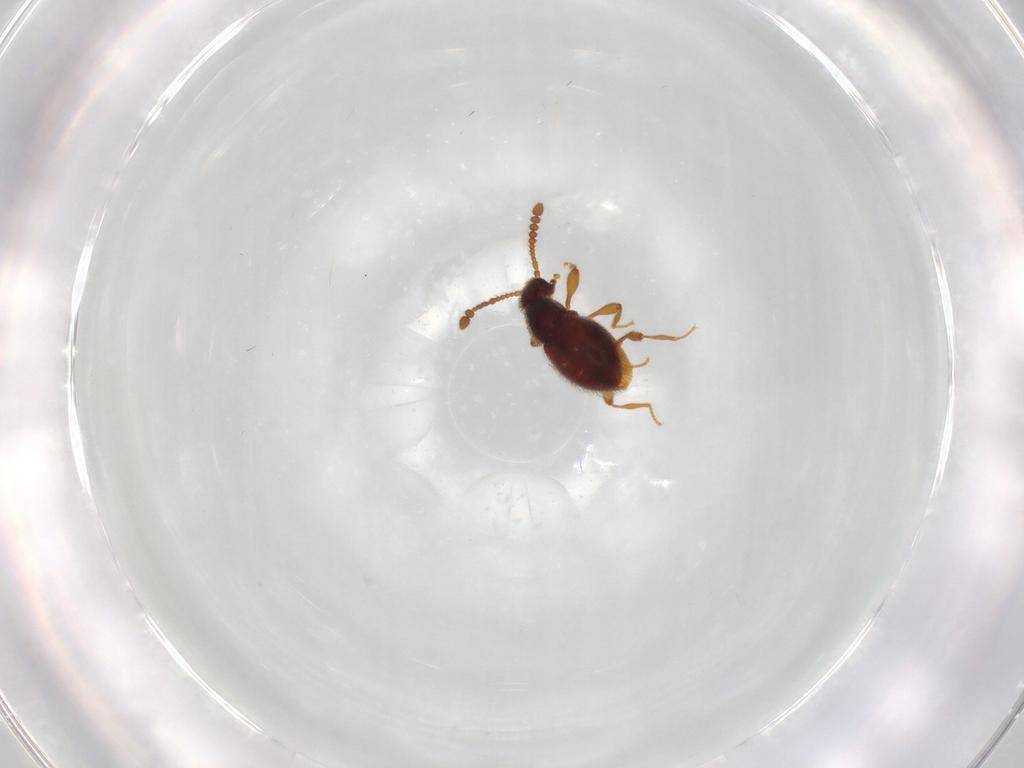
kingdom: Animalia
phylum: Arthropoda
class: Insecta
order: Coleoptera
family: Staphylinidae
